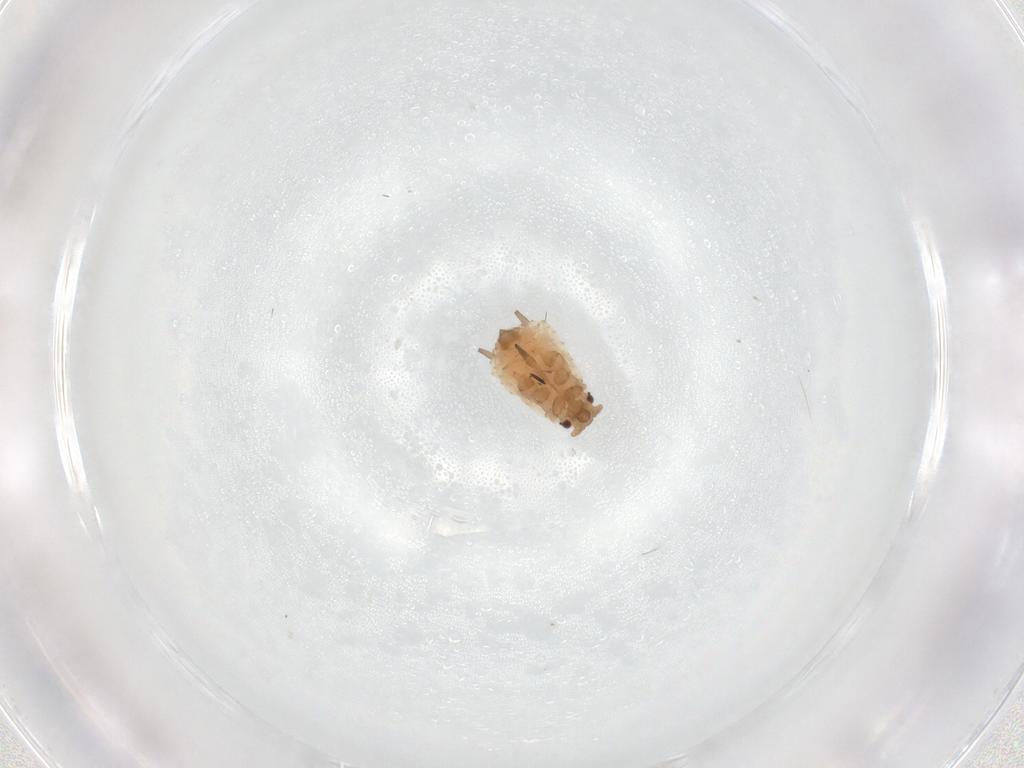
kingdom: Animalia
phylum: Arthropoda
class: Insecta
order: Hemiptera
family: Aphididae
